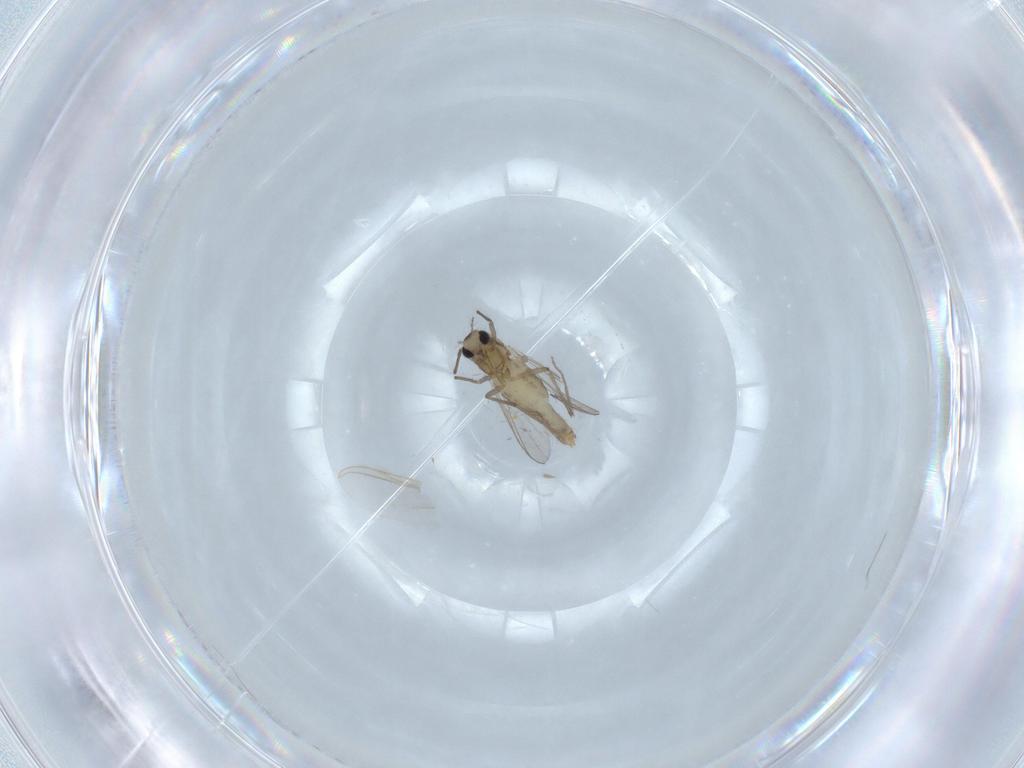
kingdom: Animalia
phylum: Arthropoda
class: Insecta
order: Diptera
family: Chironomidae
